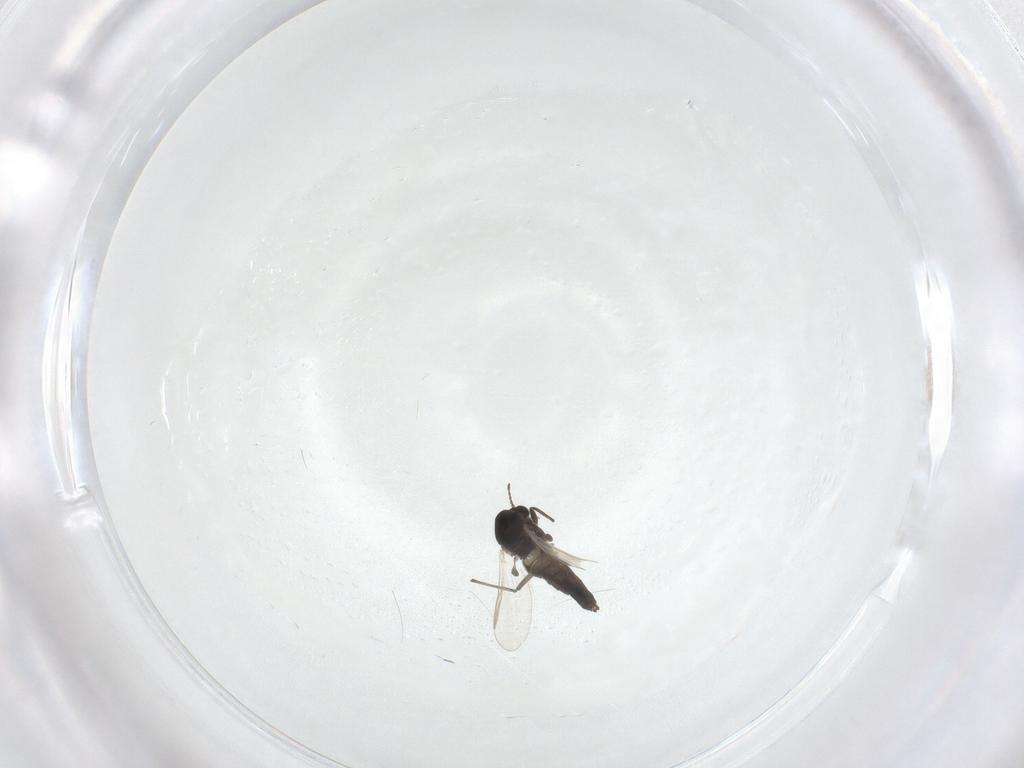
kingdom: Animalia
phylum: Arthropoda
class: Insecta
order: Diptera
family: Chironomidae
